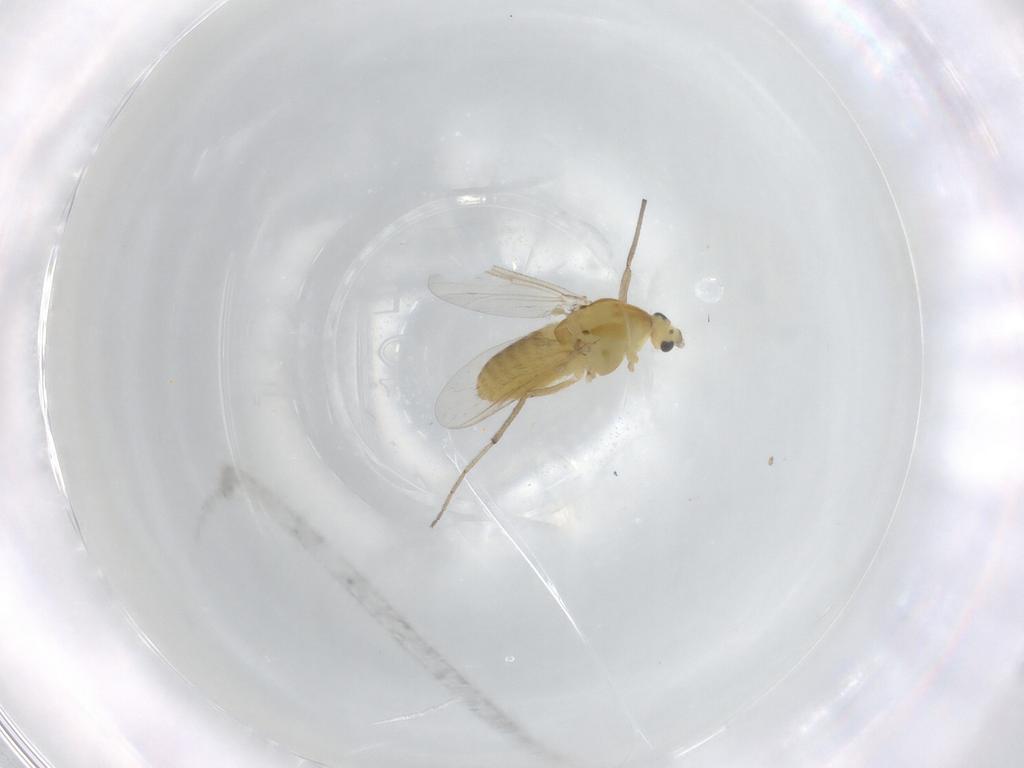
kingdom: Animalia
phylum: Arthropoda
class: Insecta
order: Diptera
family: Chironomidae
